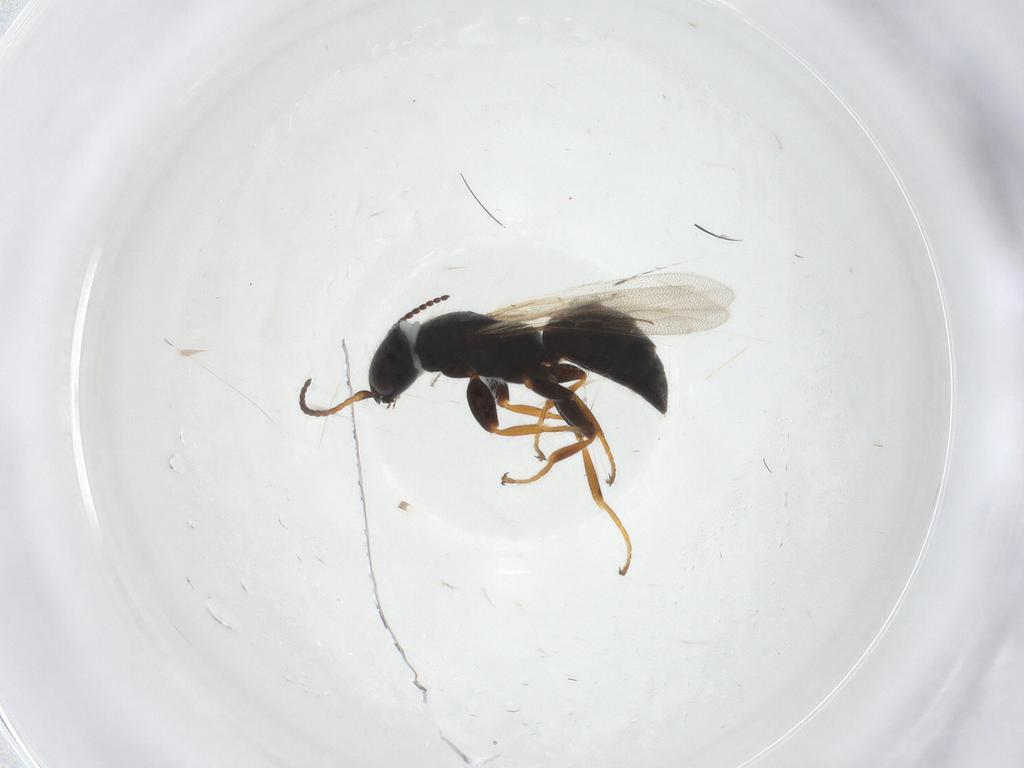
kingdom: Animalia
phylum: Arthropoda
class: Insecta
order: Hymenoptera
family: Bethylidae
